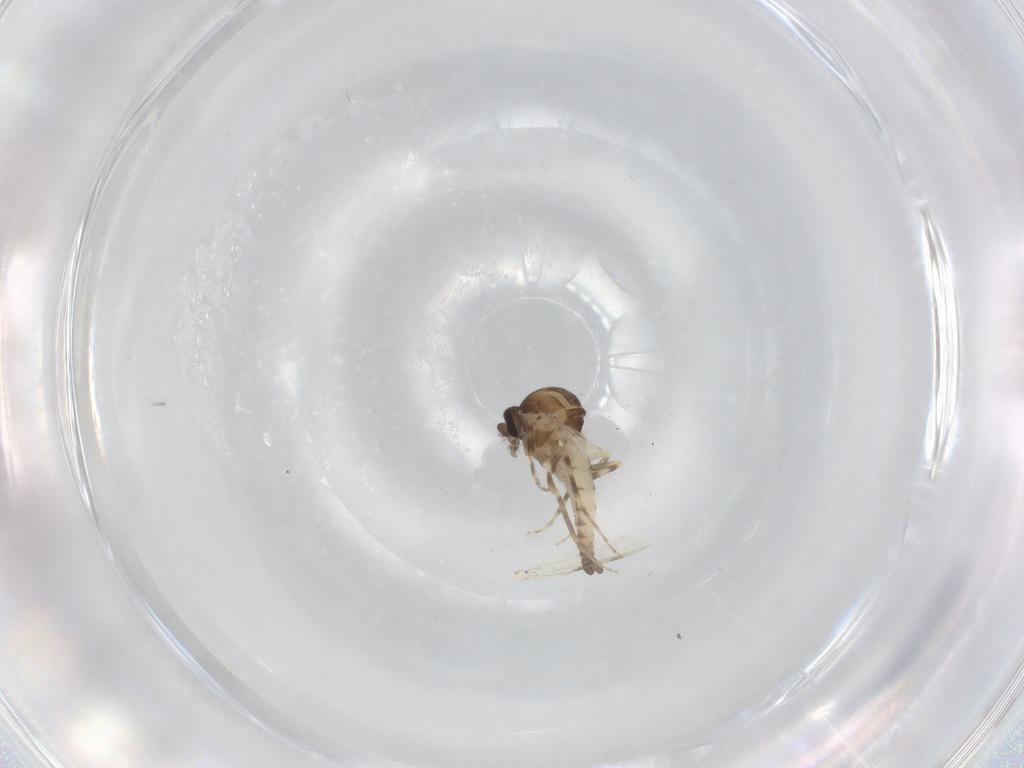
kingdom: Animalia
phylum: Arthropoda
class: Insecta
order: Diptera
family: Ceratopogonidae
